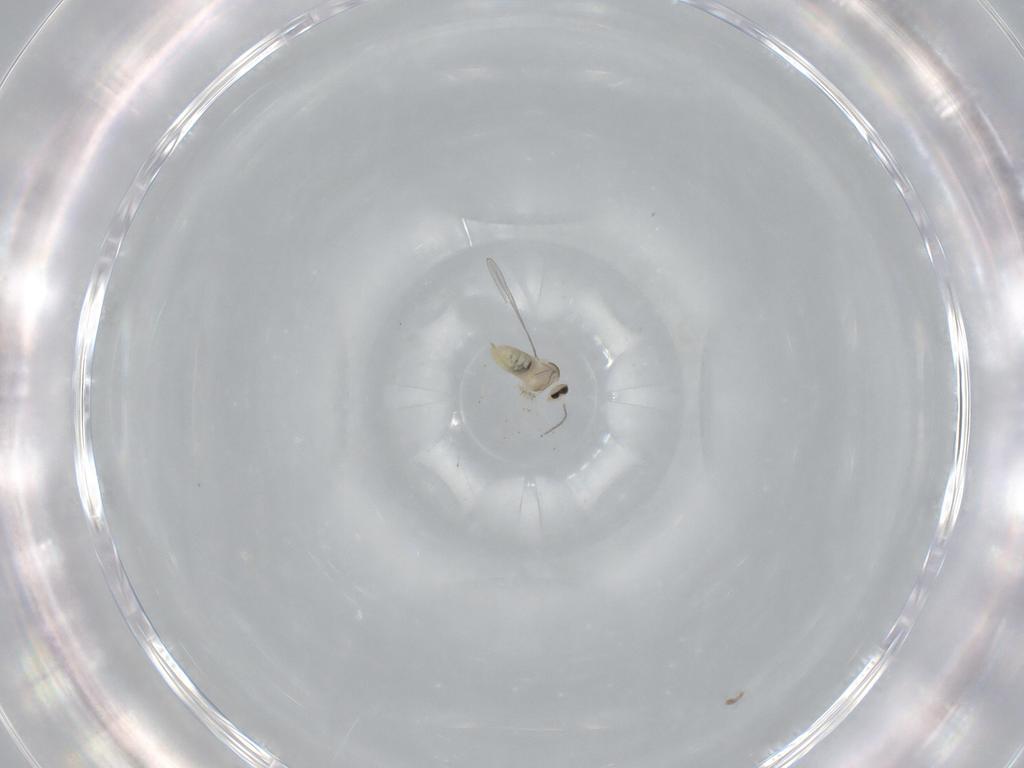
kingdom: Animalia
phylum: Arthropoda
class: Insecta
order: Diptera
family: Cecidomyiidae
